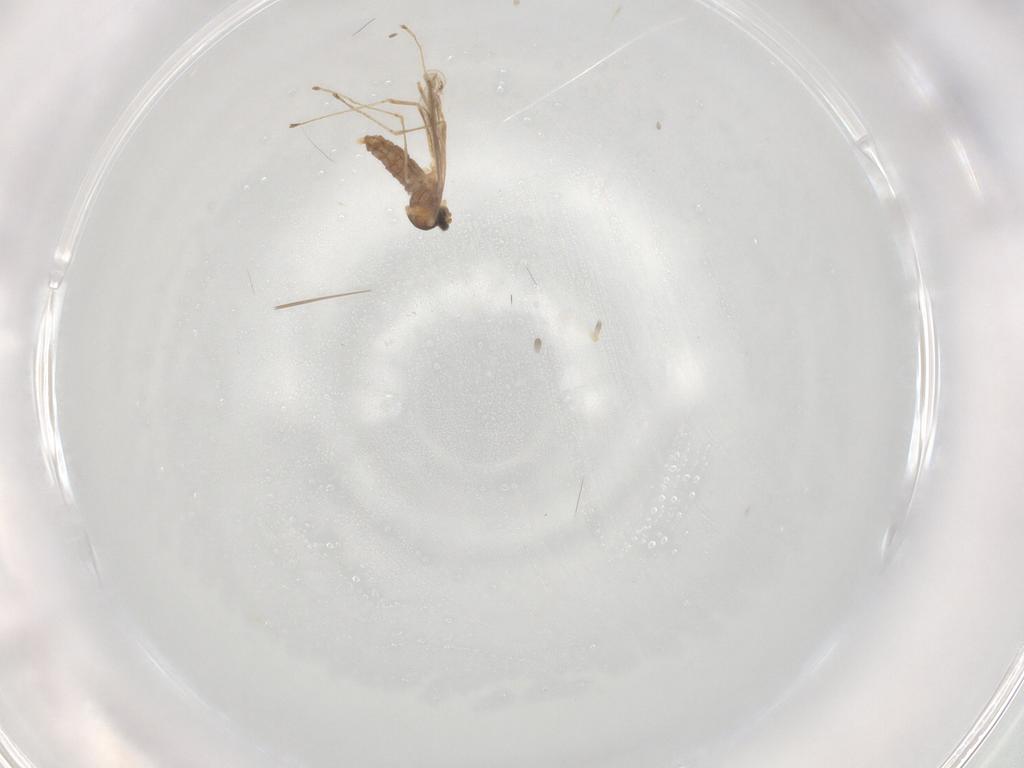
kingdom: Animalia
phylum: Arthropoda
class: Insecta
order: Diptera
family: Cecidomyiidae
